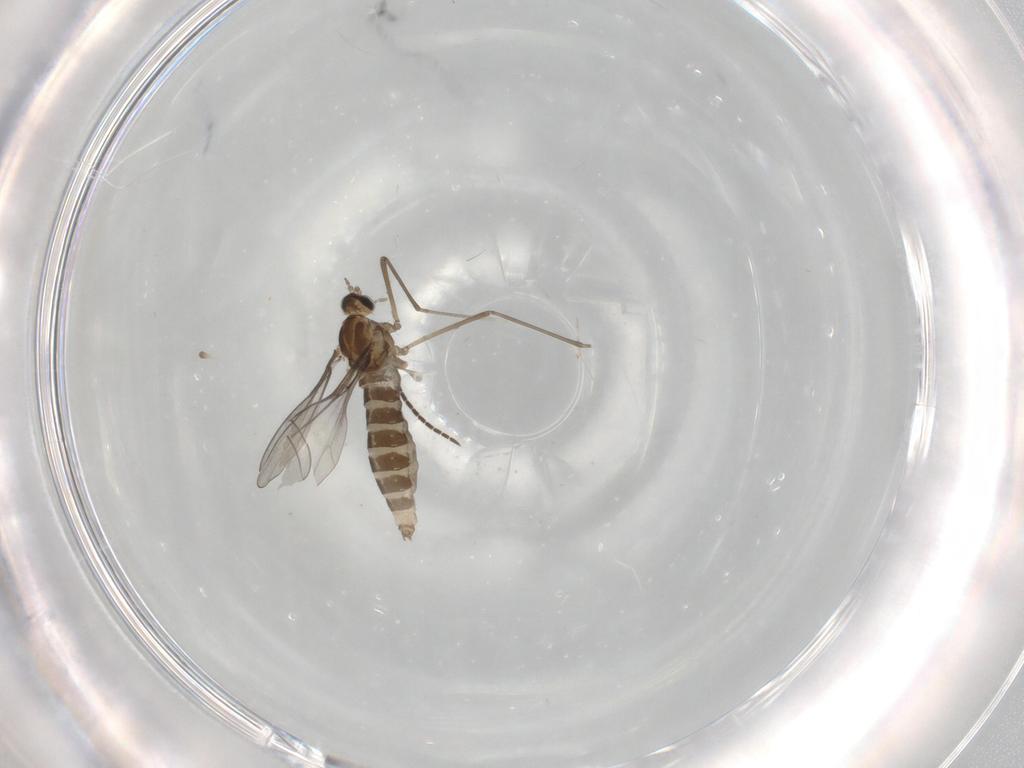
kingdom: Animalia
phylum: Arthropoda
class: Insecta
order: Diptera
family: Cecidomyiidae
